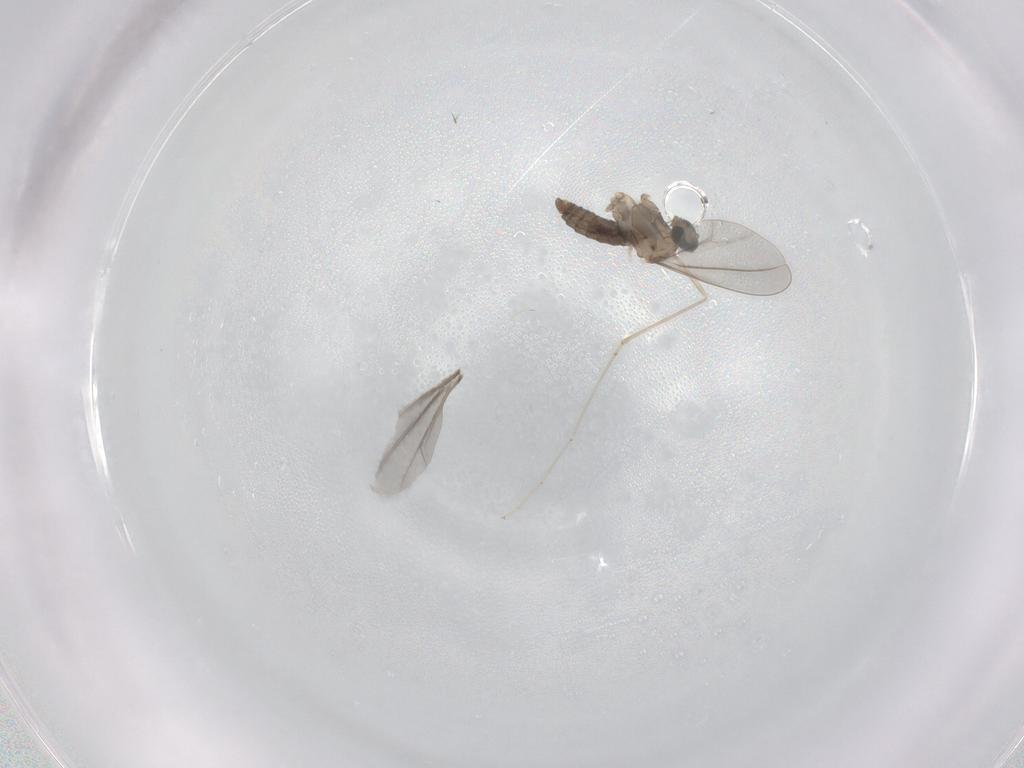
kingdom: Animalia
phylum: Arthropoda
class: Insecta
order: Diptera
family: Cecidomyiidae
